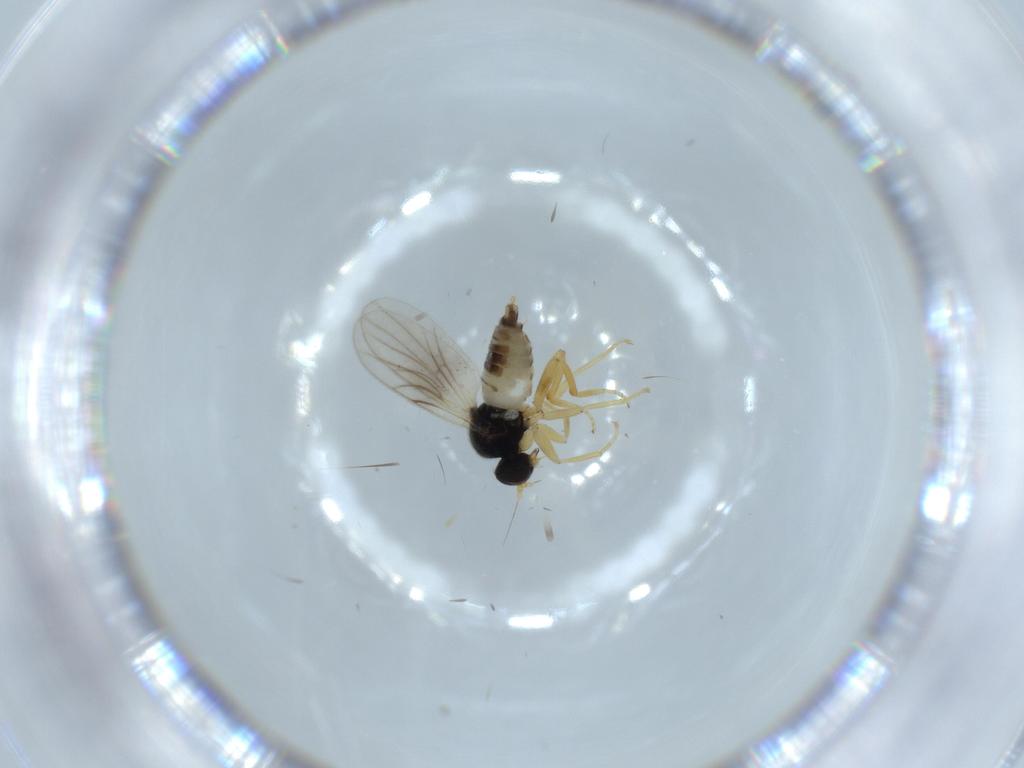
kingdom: Animalia
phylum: Arthropoda
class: Insecta
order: Diptera
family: Hybotidae
